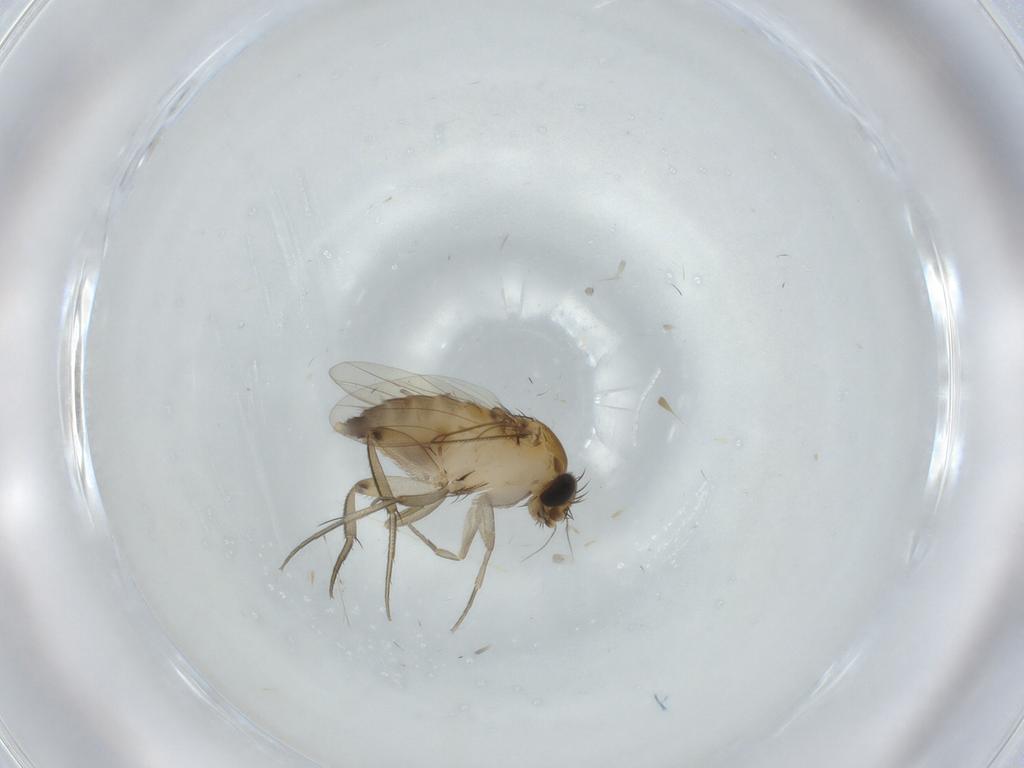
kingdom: Animalia
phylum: Arthropoda
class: Insecta
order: Diptera
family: Phoridae
